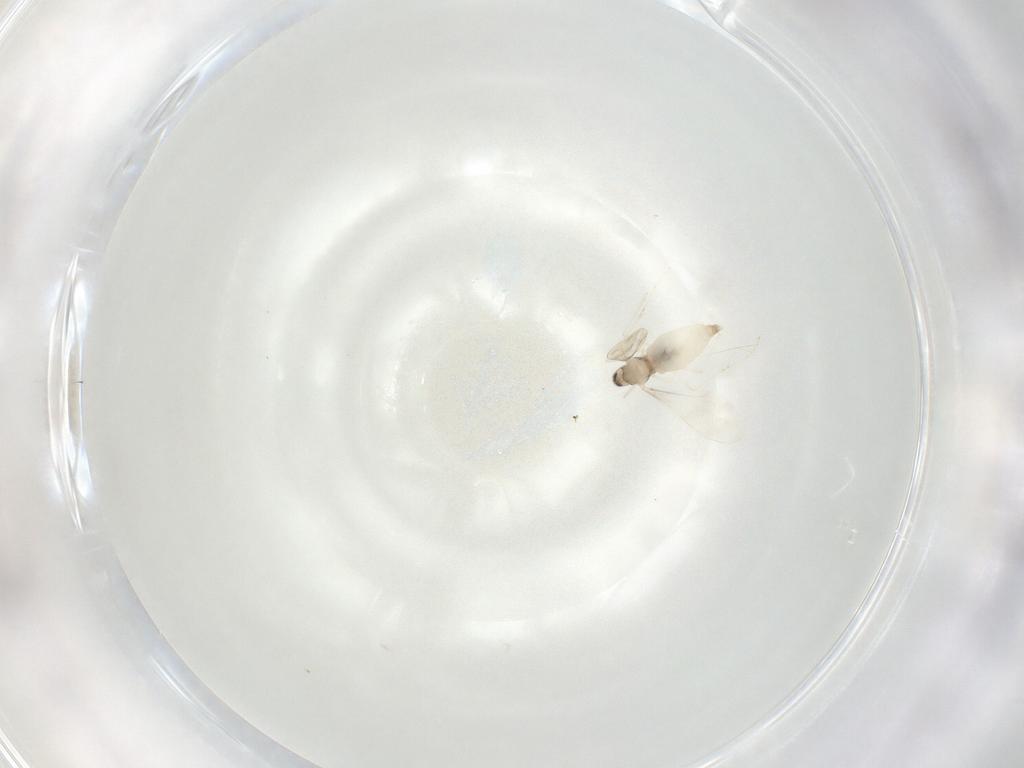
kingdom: Animalia
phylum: Arthropoda
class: Insecta
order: Diptera
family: Cecidomyiidae
